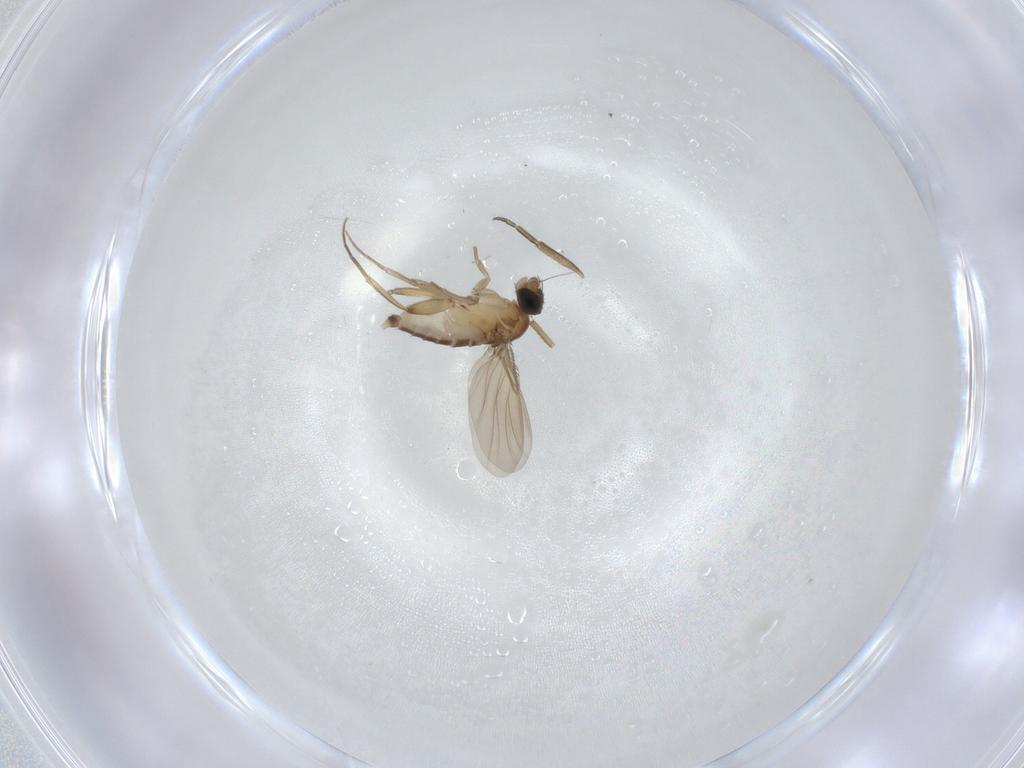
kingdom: Animalia
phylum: Arthropoda
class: Insecta
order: Diptera
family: Phoridae
